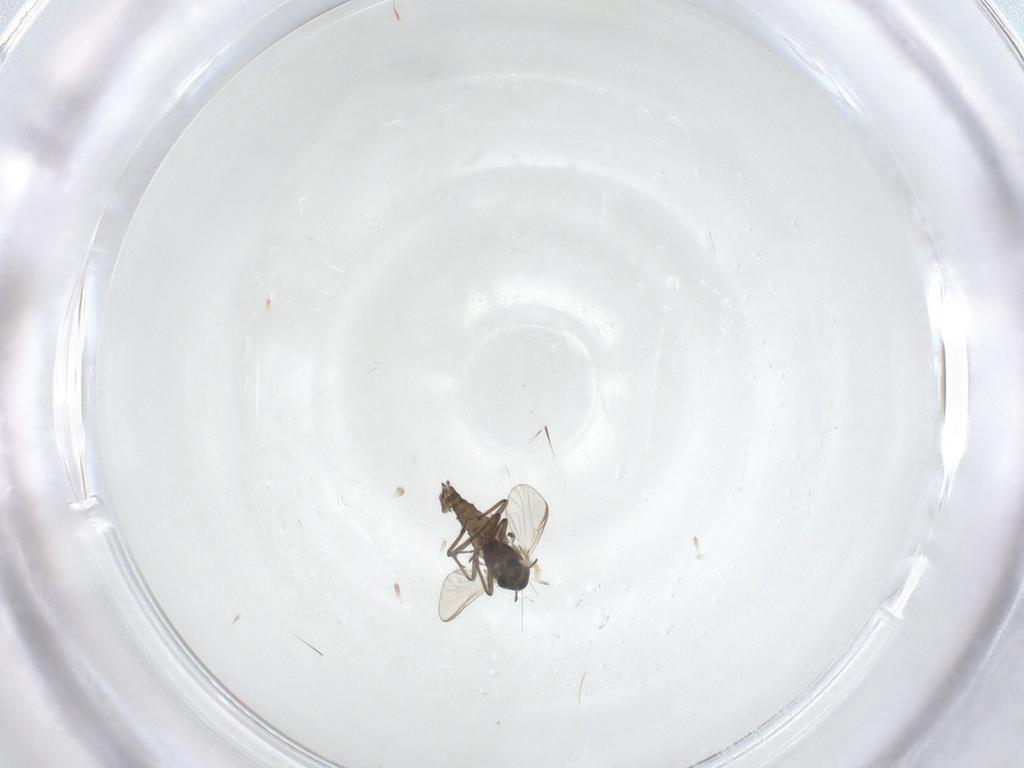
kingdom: Animalia
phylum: Arthropoda
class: Insecta
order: Diptera
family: Chironomidae
